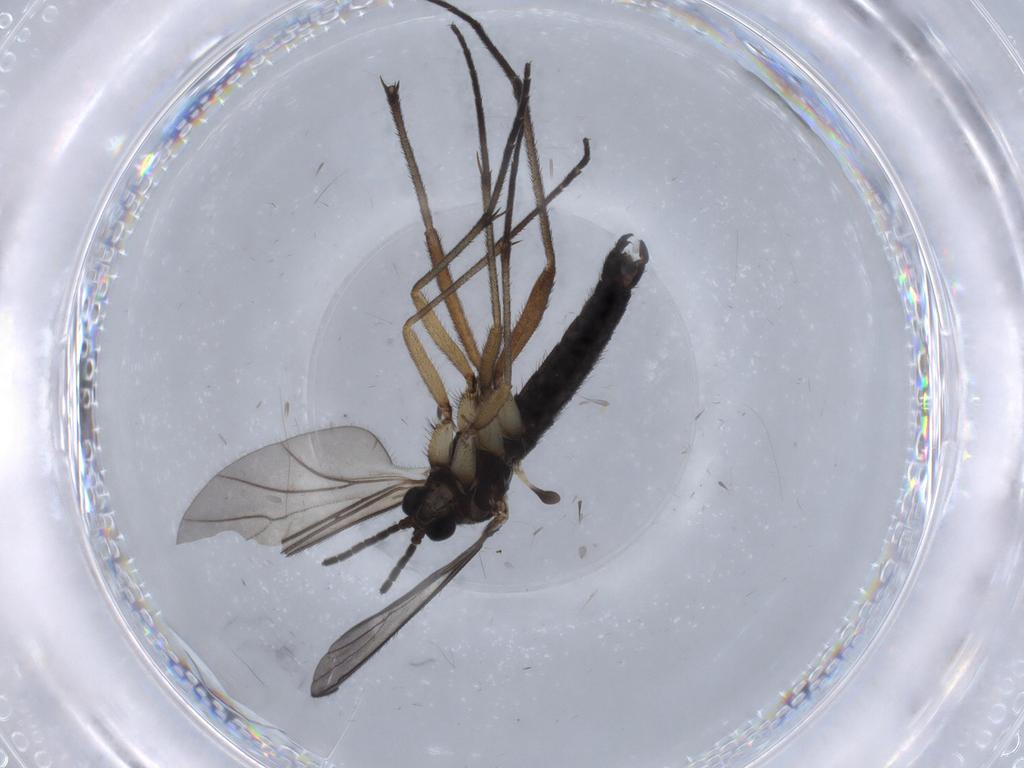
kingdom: Animalia
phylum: Arthropoda
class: Insecta
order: Diptera
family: Sciaridae
